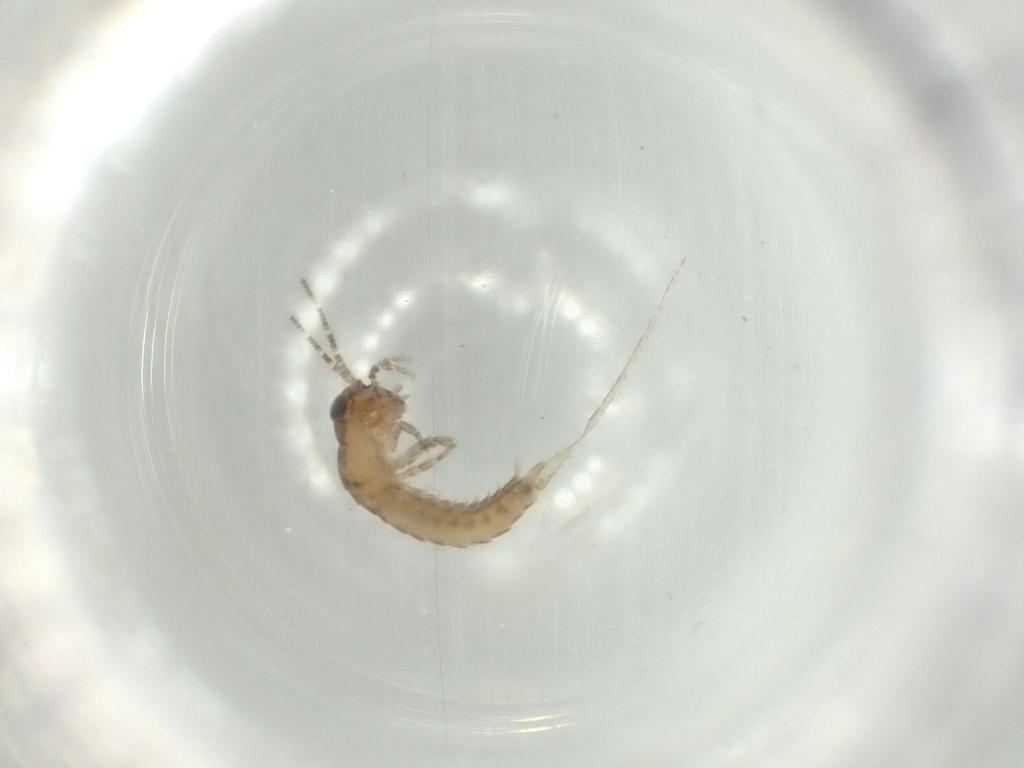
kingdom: Animalia
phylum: Arthropoda
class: Insecta
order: Archaeognatha
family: Machilidae
